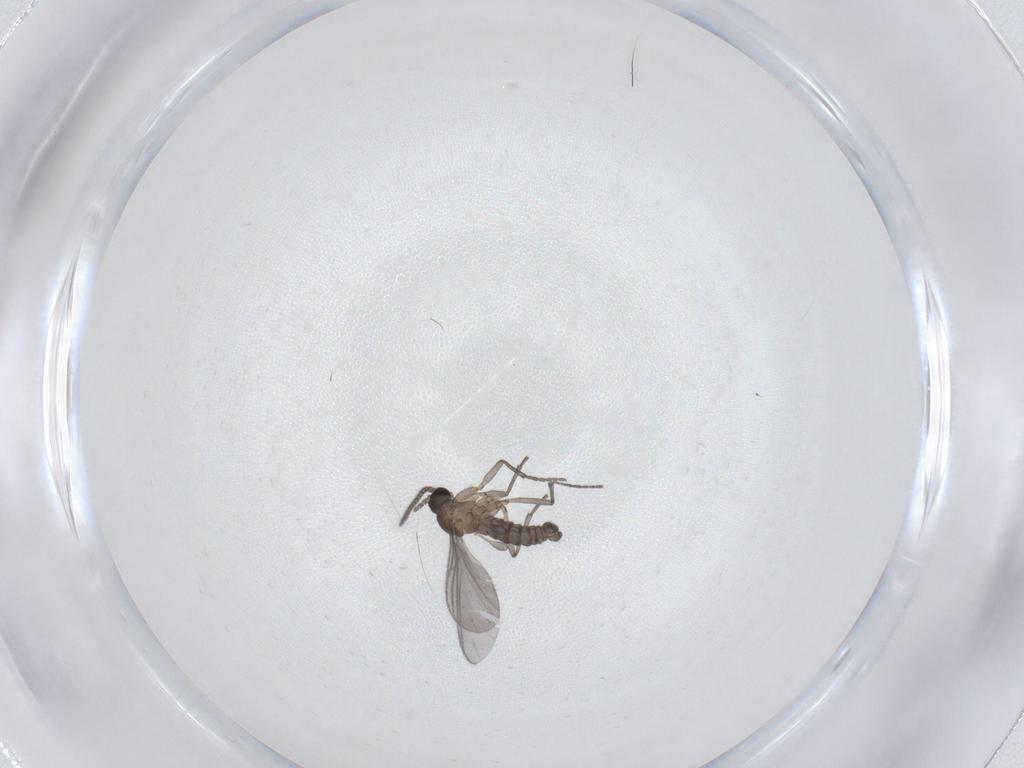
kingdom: Animalia
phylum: Arthropoda
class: Insecta
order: Diptera
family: Sciaridae
